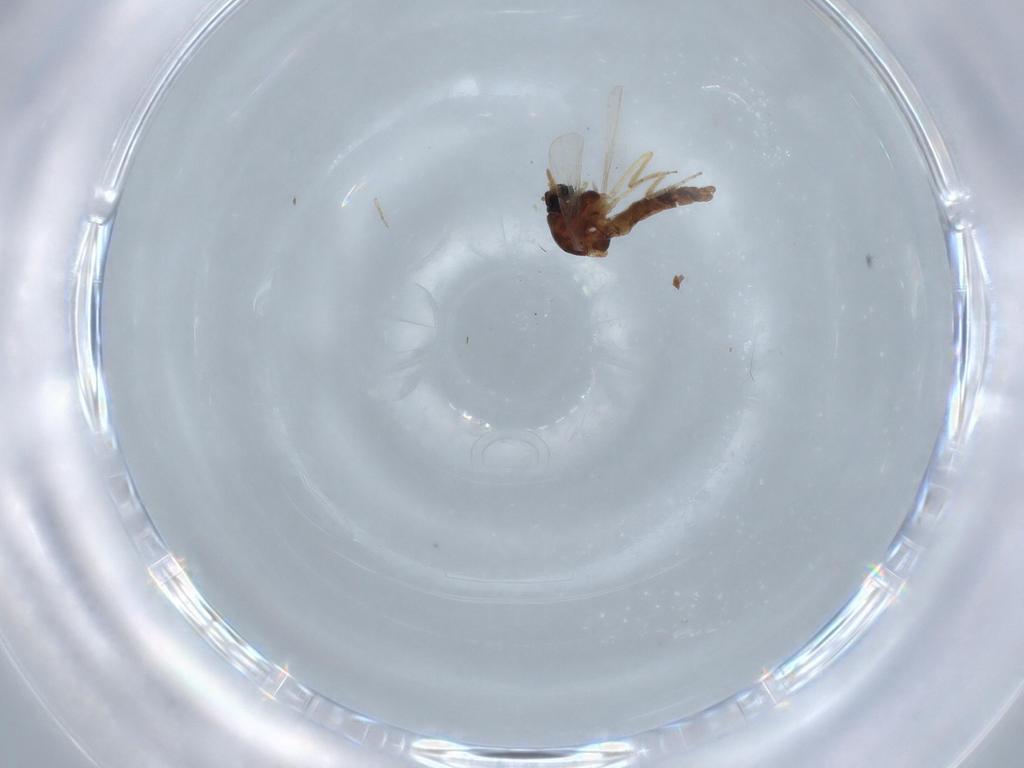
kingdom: Animalia
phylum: Arthropoda
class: Insecta
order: Diptera
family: Ceratopogonidae
